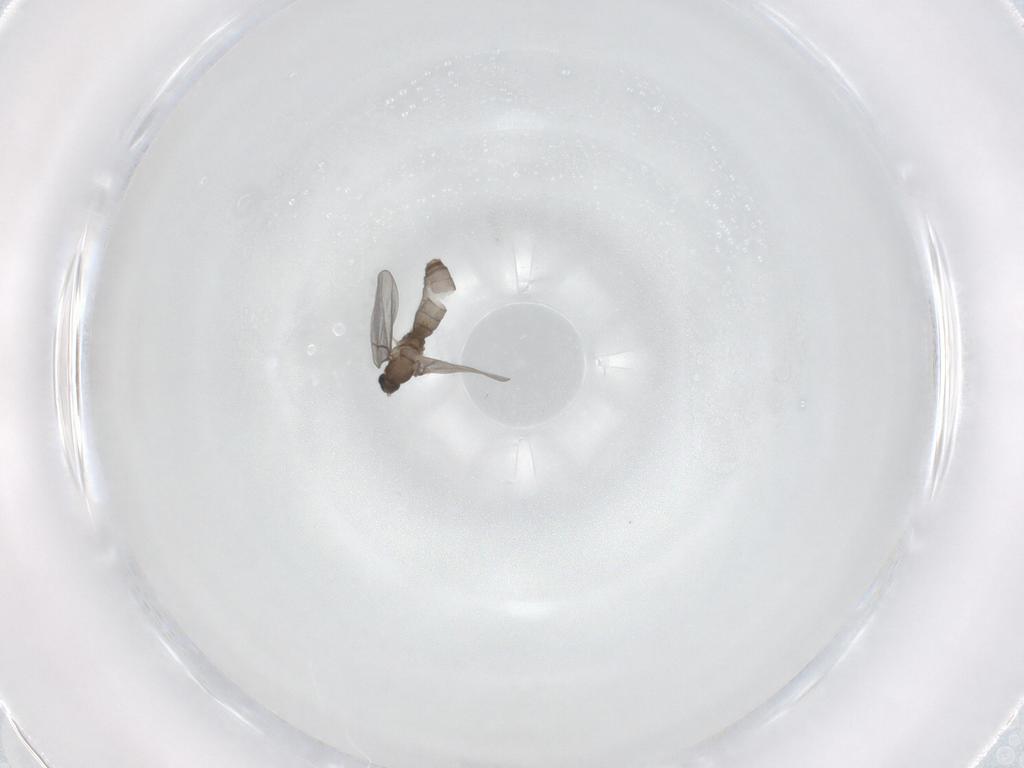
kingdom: Animalia
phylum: Arthropoda
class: Insecta
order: Diptera
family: Cecidomyiidae
